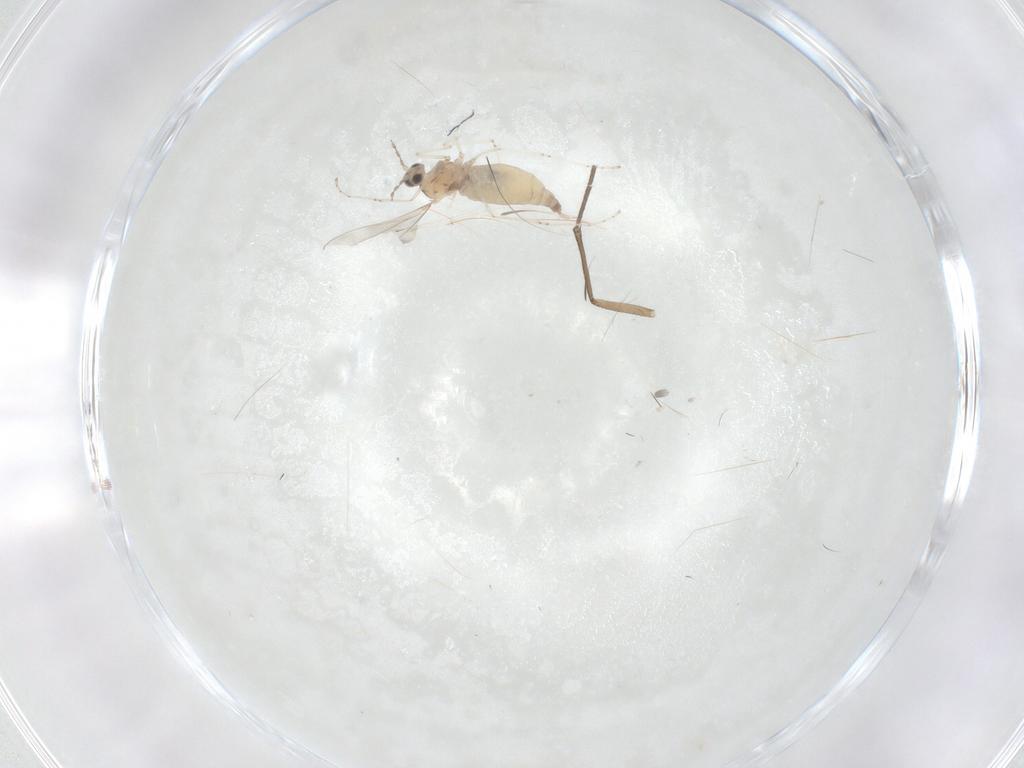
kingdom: Animalia
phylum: Arthropoda
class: Insecta
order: Diptera
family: Cecidomyiidae
